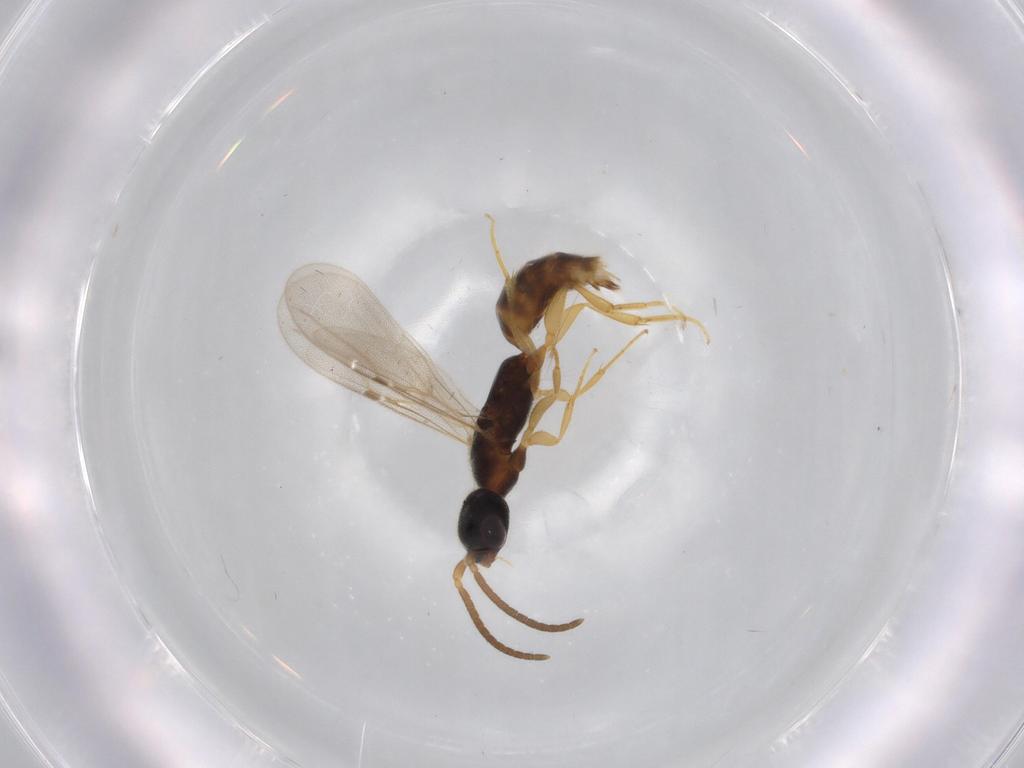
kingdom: Animalia
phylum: Arthropoda
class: Insecta
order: Hymenoptera
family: Bethylidae
